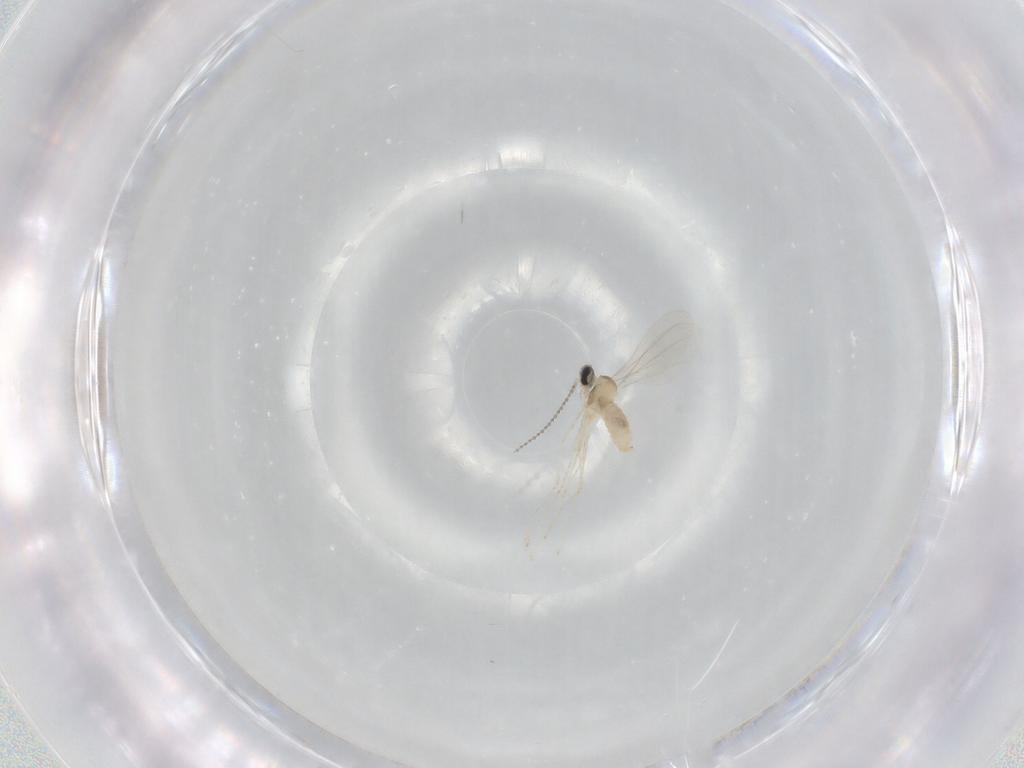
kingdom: Animalia
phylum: Arthropoda
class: Insecta
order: Diptera
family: Cecidomyiidae
